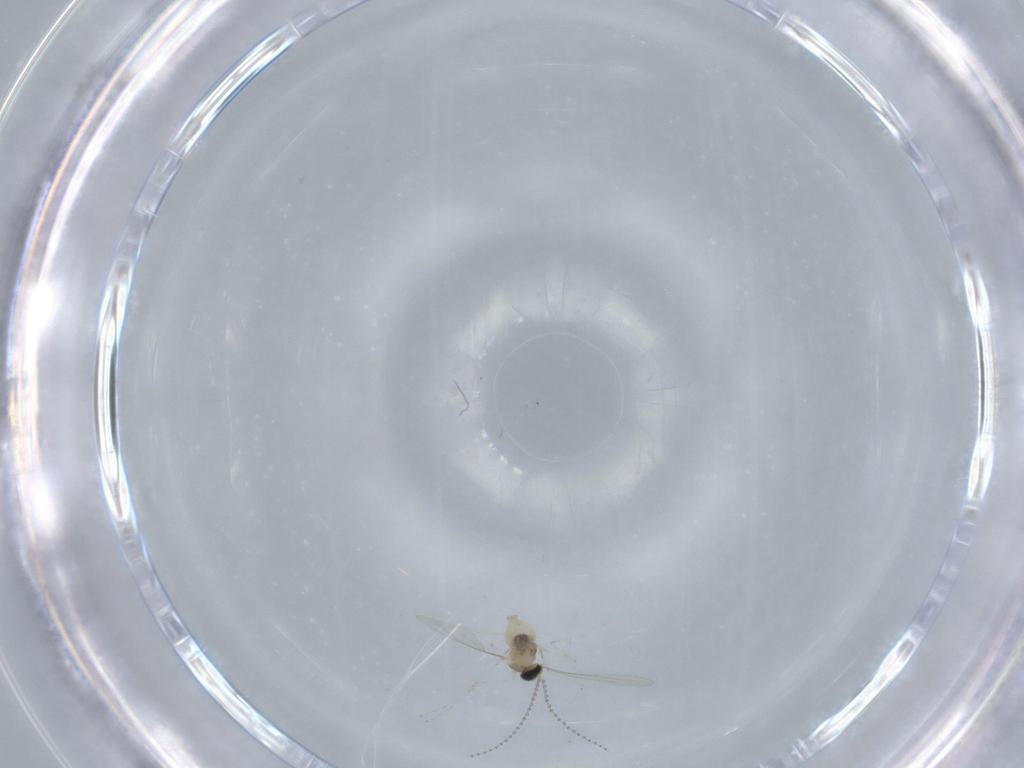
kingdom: Animalia
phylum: Arthropoda
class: Insecta
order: Diptera
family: Cecidomyiidae
